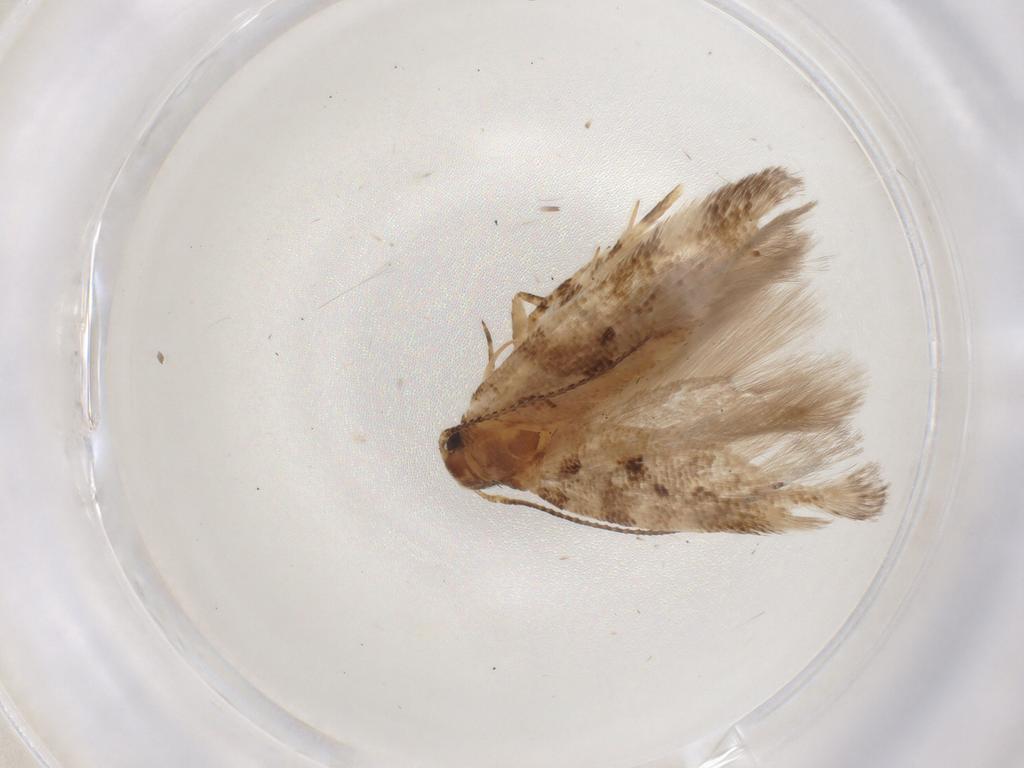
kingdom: Animalia
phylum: Arthropoda
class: Insecta
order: Lepidoptera
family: Gelechiidae
